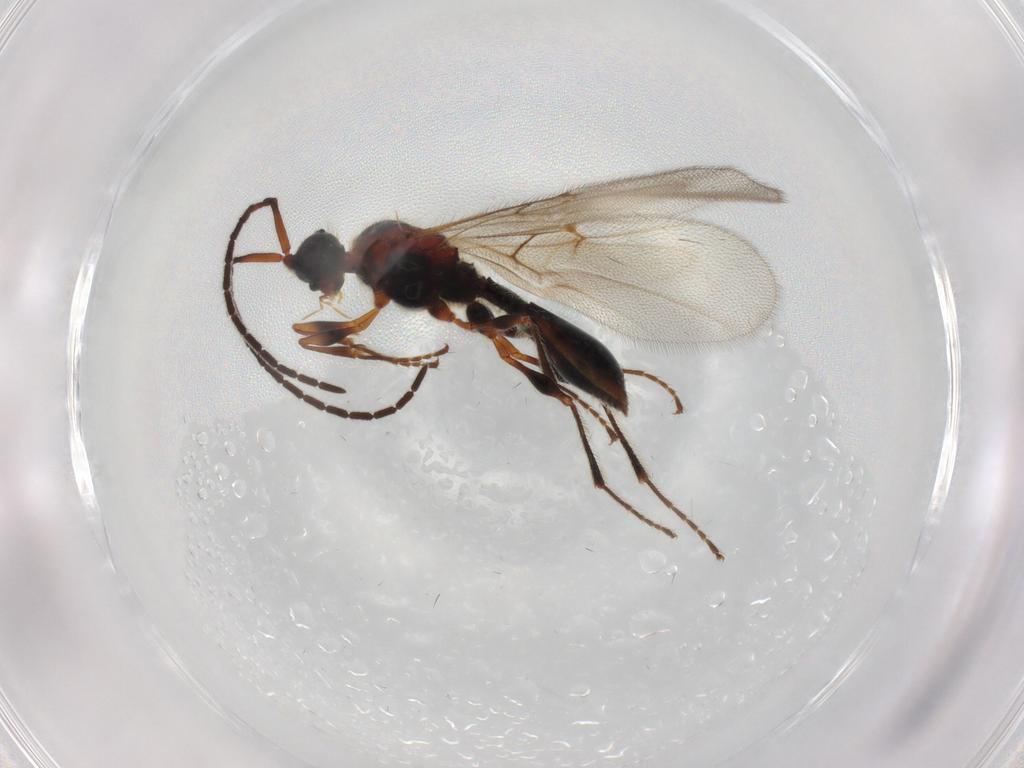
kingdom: Animalia
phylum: Arthropoda
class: Insecta
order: Hymenoptera
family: Diapriidae
